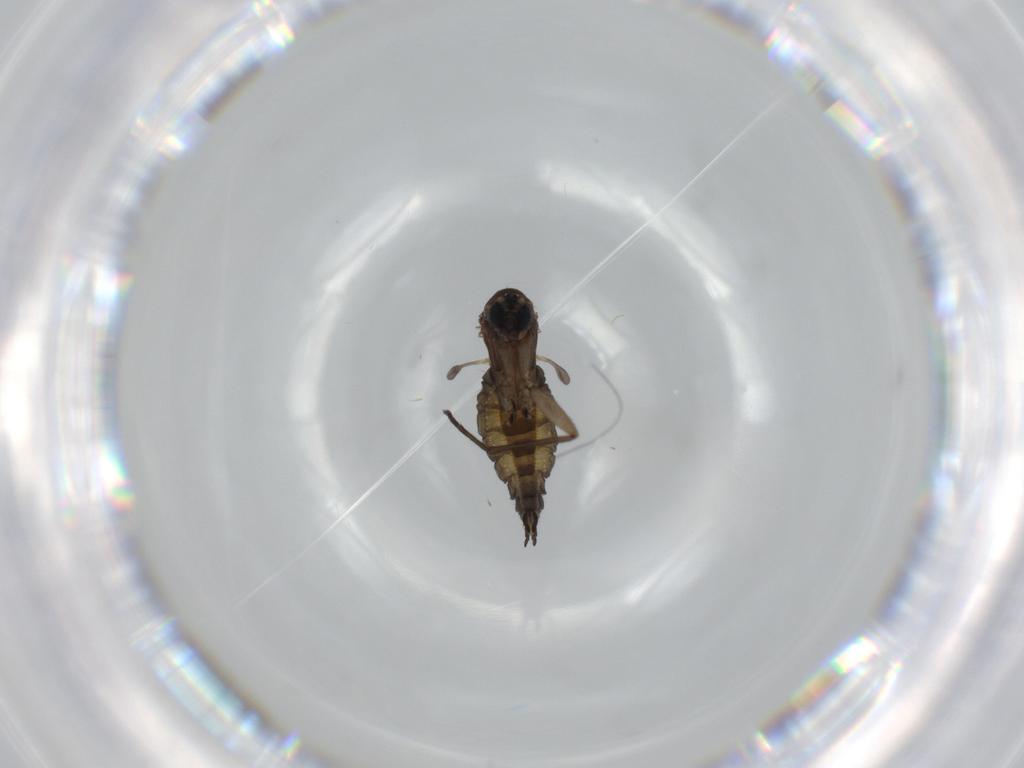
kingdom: Animalia
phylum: Arthropoda
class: Insecta
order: Diptera
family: Sciaridae
